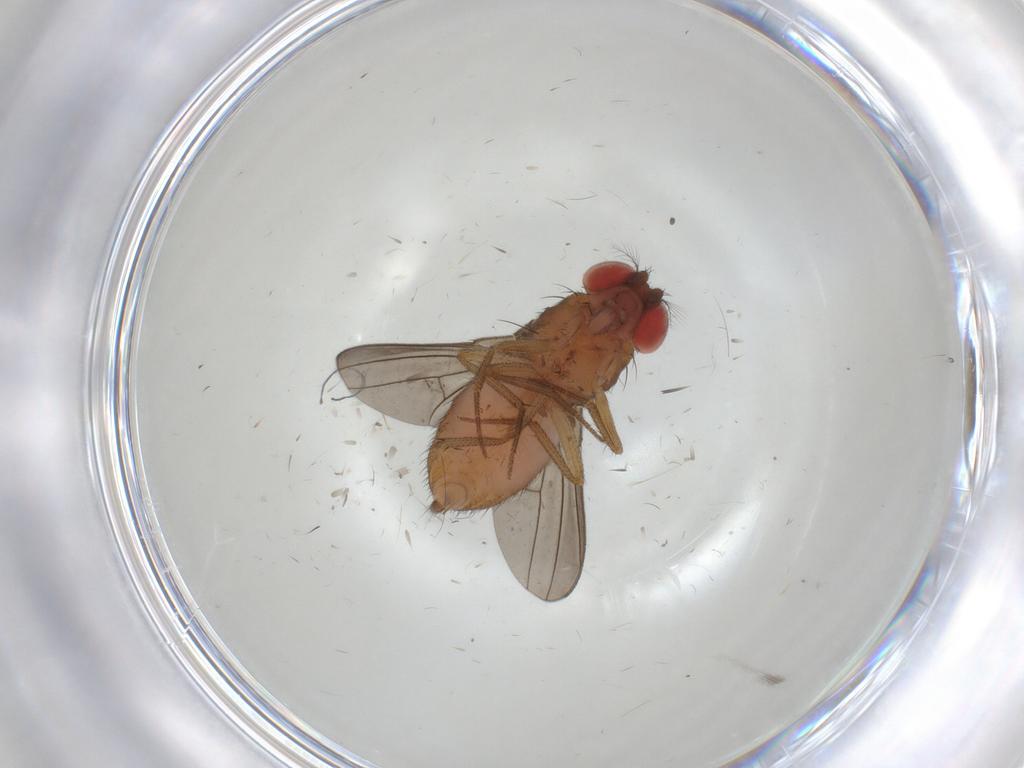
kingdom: Animalia
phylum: Arthropoda
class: Insecta
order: Diptera
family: Drosophilidae
